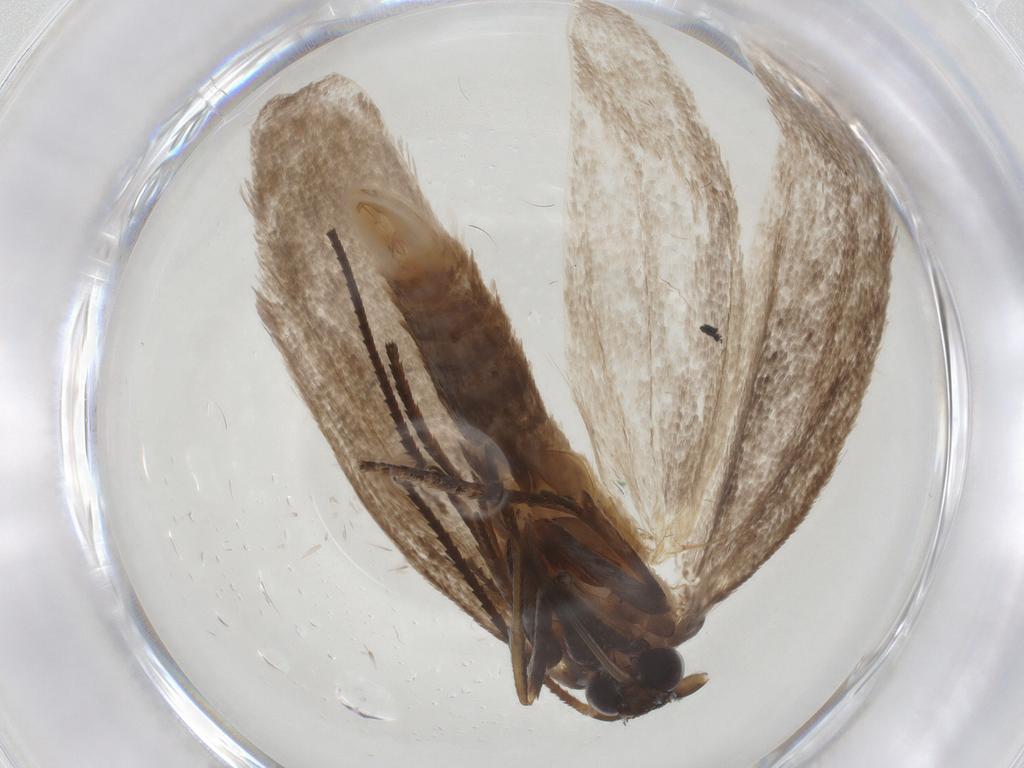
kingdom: Animalia
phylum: Arthropoda
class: Insecta
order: Lepidoptera
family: Roeslerstammiidae
